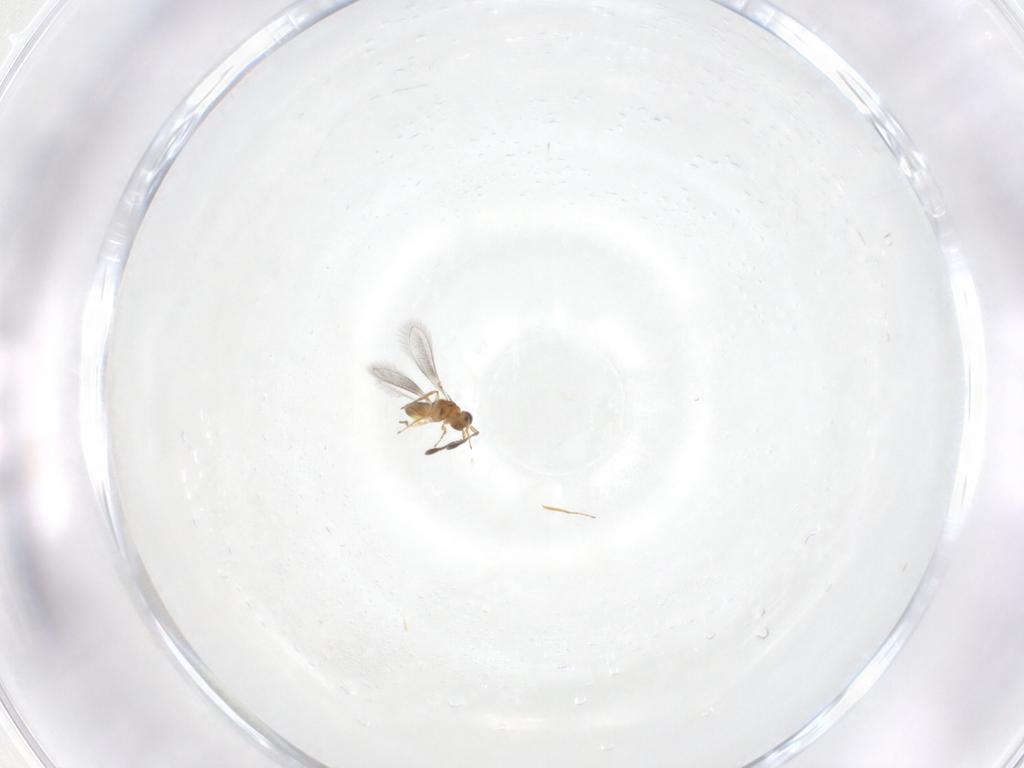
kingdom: Animalia
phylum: Arthropoda
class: Insecta
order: Hymenoptera
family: Mymaridae
